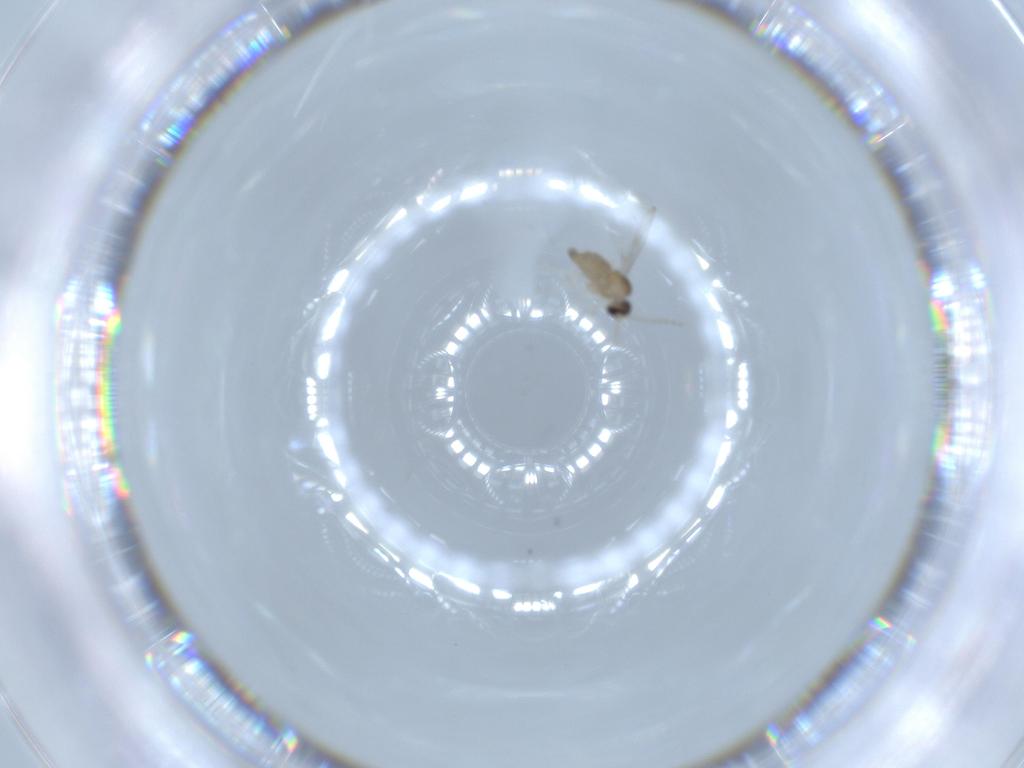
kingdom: Animalia
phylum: Arthropoda
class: Insecta
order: Diptera
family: Cecidomyiidae
